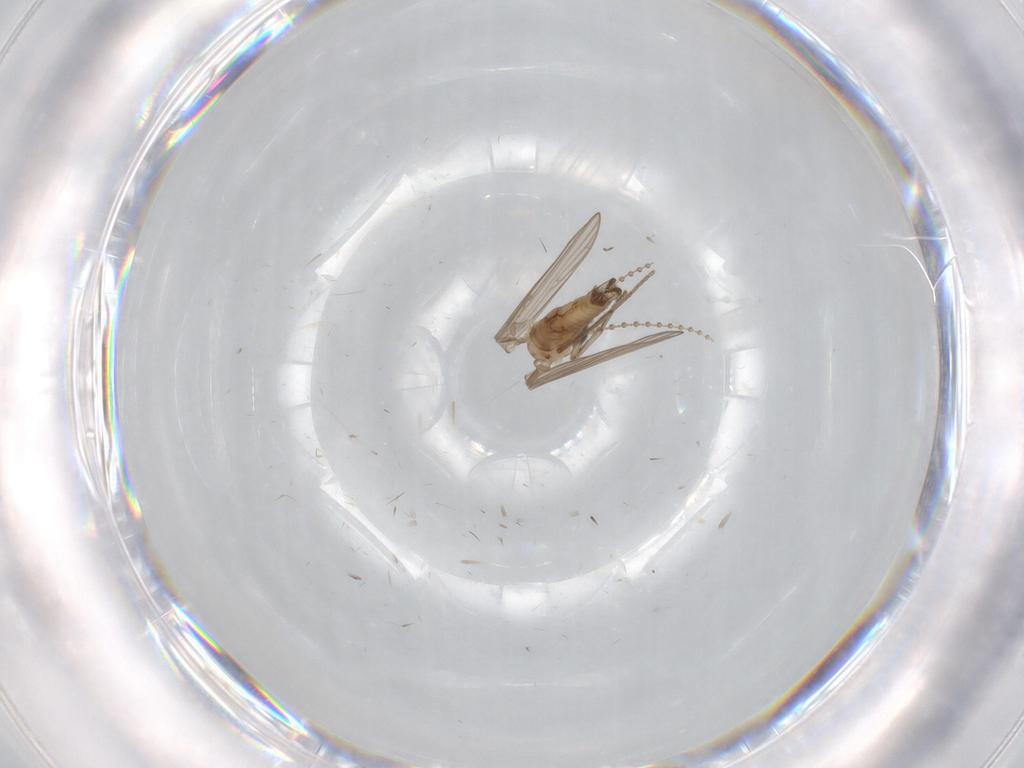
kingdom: Animalia
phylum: Arthropoda
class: Insecta
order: Diptera
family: Psychodidae
